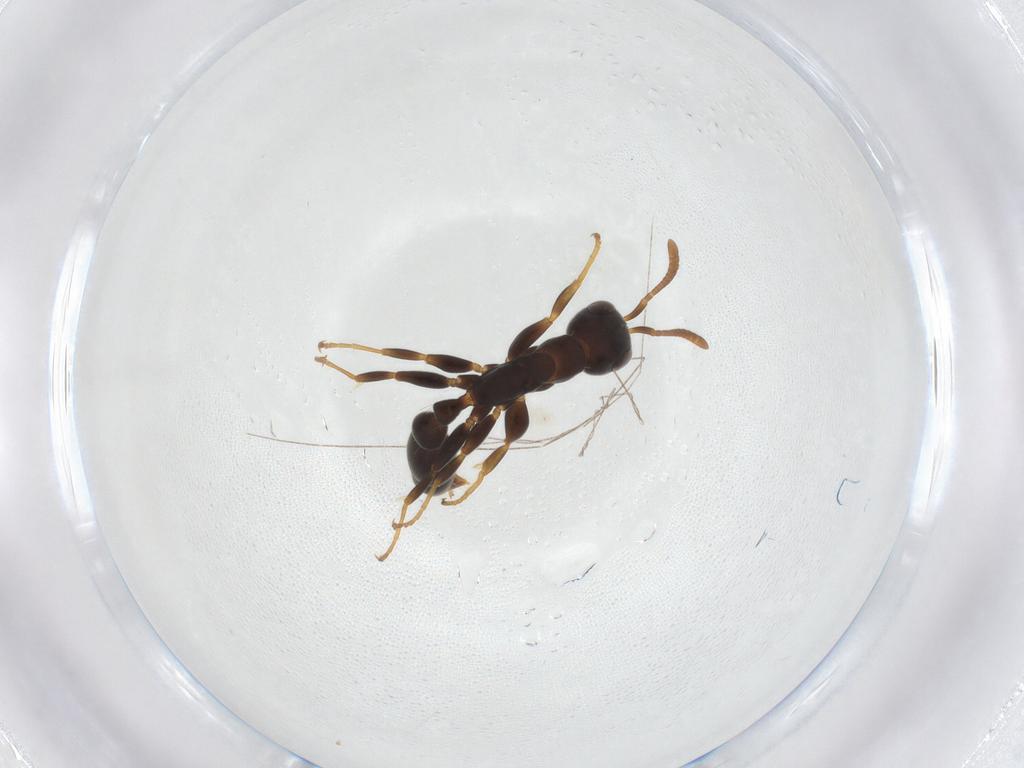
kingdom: Animalia
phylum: Arthropoda
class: Insecta
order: Hymenoptera
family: Formicidae
